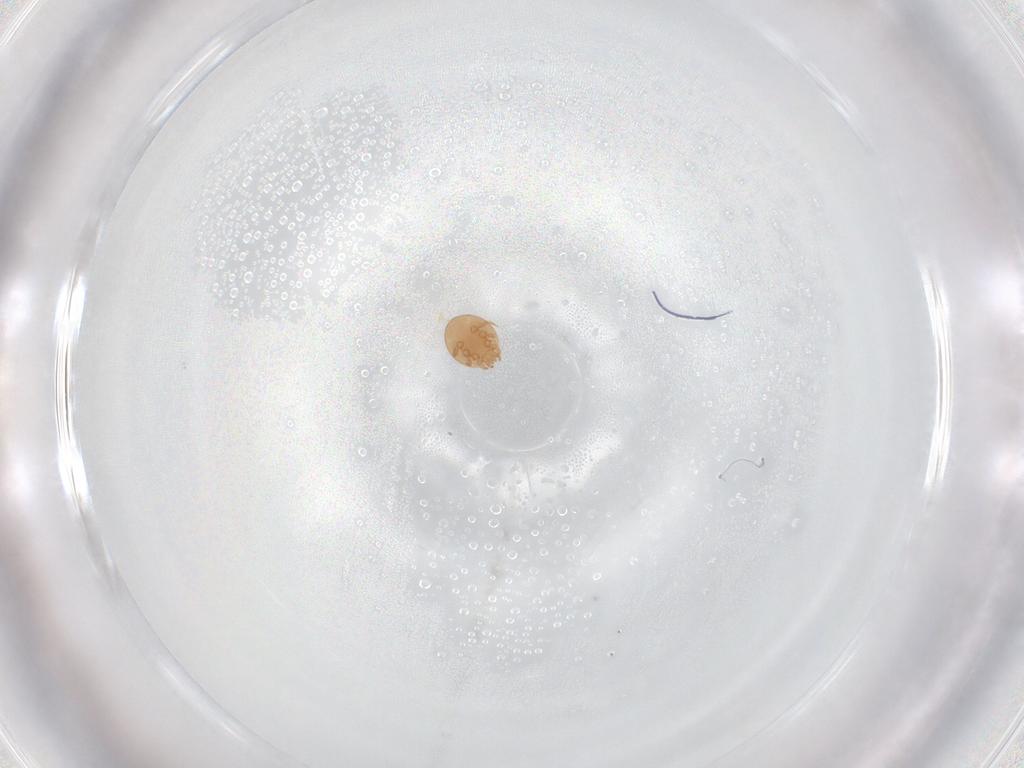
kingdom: Animalia
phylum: Arthropoda
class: Arachnida
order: Mesostigmata
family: Trematuridae
